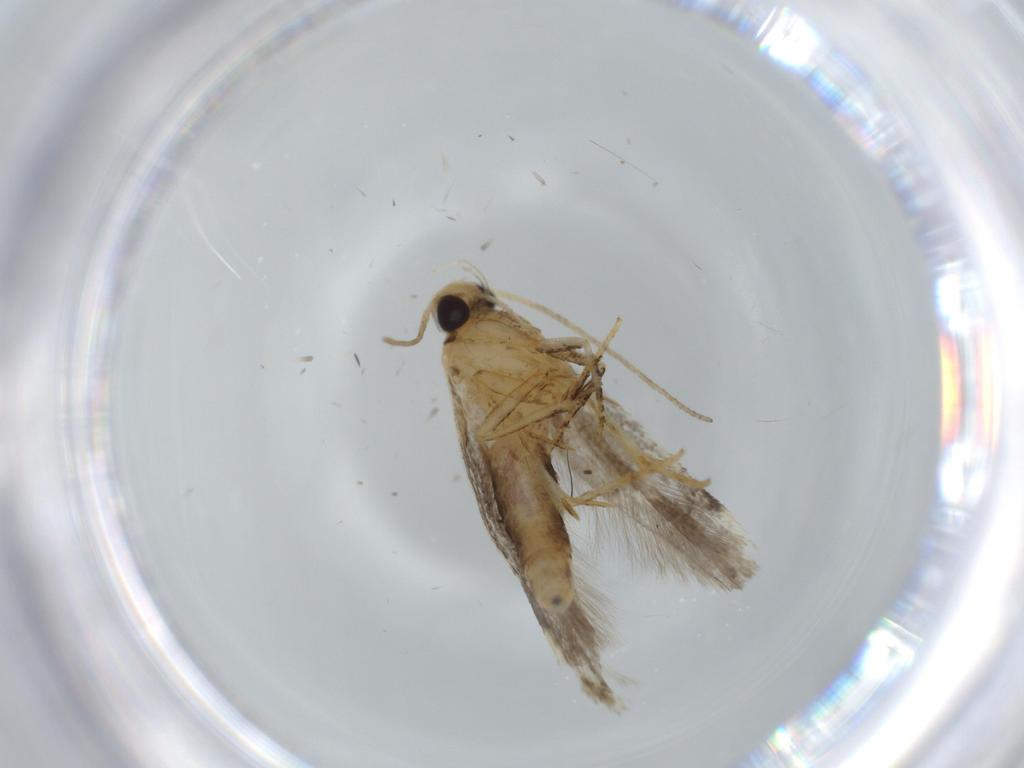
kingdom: Animalia
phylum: Arthropoda
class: Insecta
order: Lepidoptera
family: Coleophoridae
